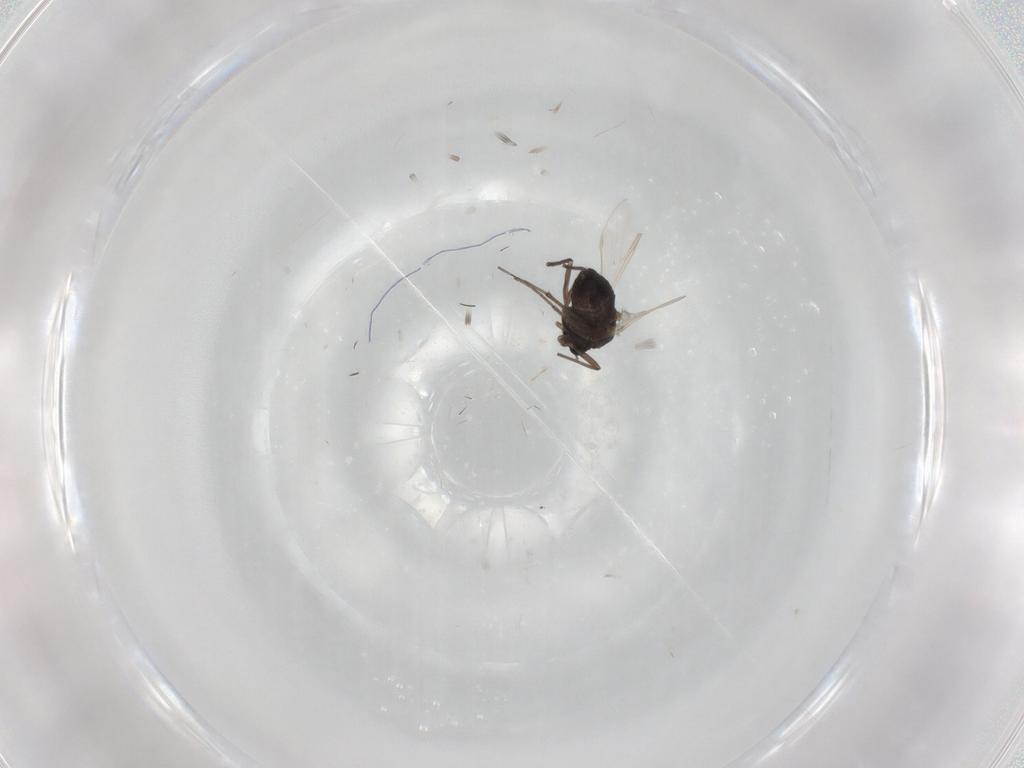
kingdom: Animalia
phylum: Arthropoda
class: Insecta
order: Diptera
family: Chironomidae
